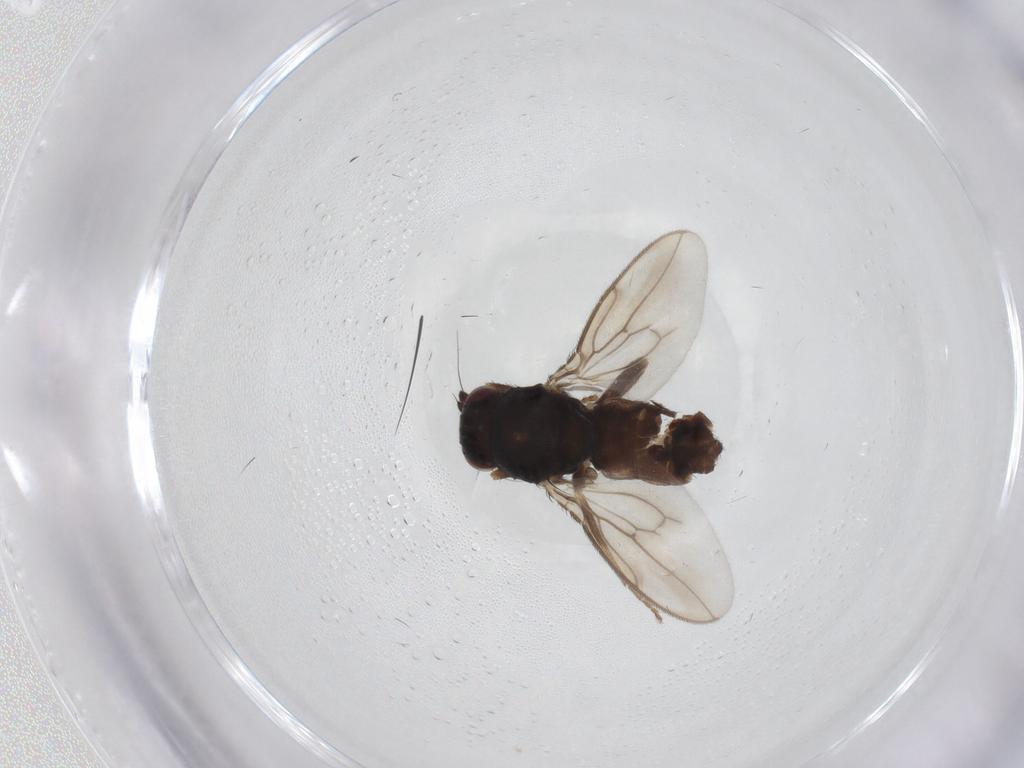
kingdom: Animalia
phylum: Arthropoda
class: Insecta
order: Diptera
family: Sphaeroceridae
